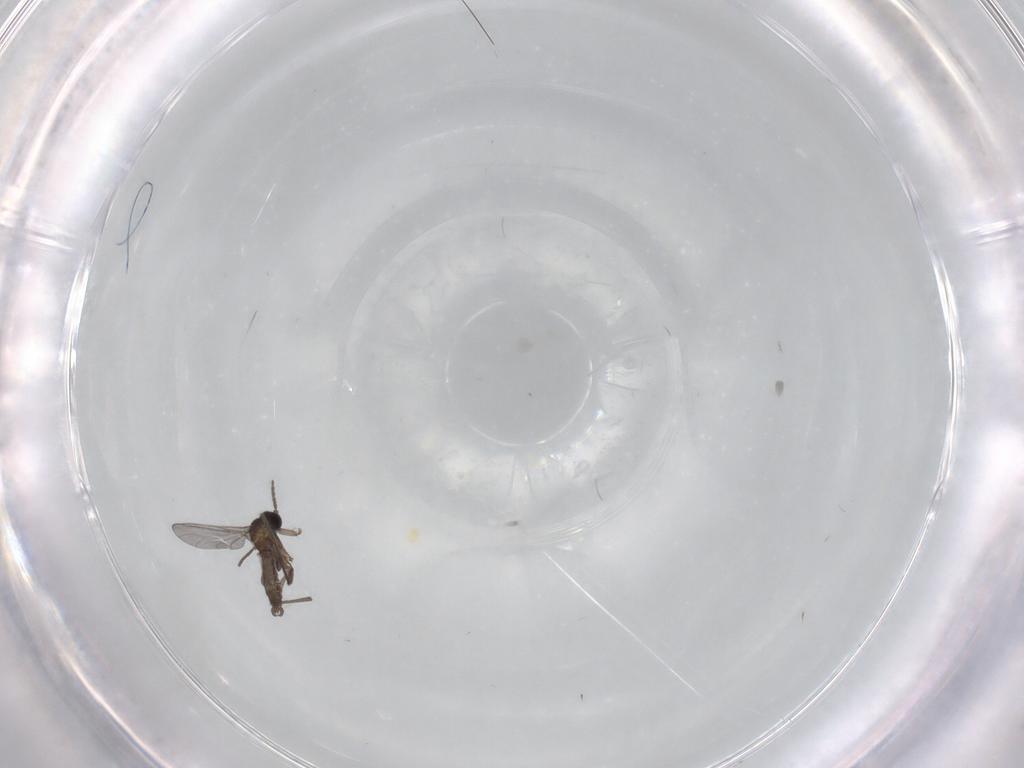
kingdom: Animalia
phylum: Arthropoda
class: Insecta
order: Diptera
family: Sciaridae
